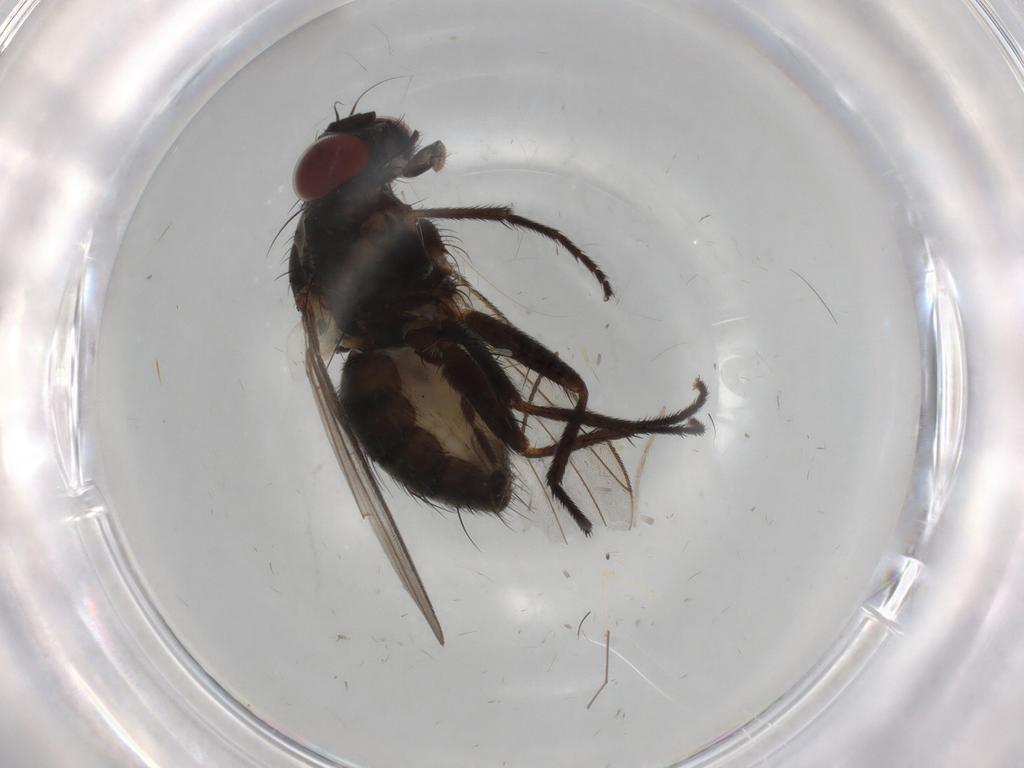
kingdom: Animalia
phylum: Arthropoda
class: Insecta
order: Diptera
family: Muscidae
